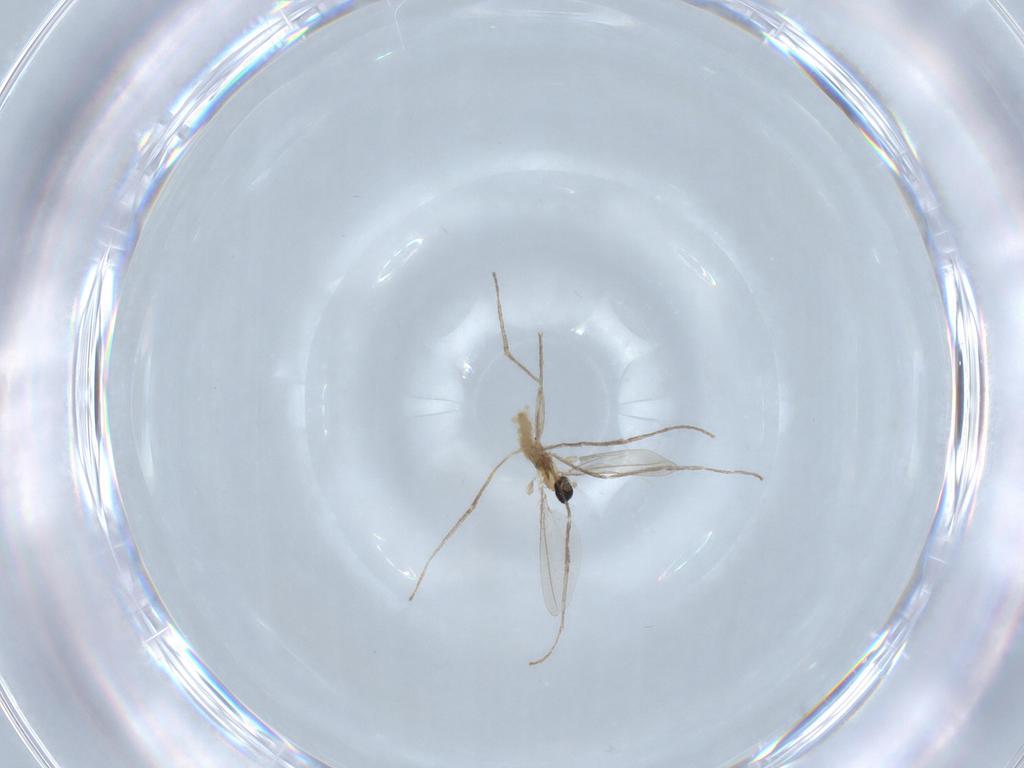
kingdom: Animalia
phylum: Arthropoda
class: Insecta
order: Diptera
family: Cecidomyiidae
